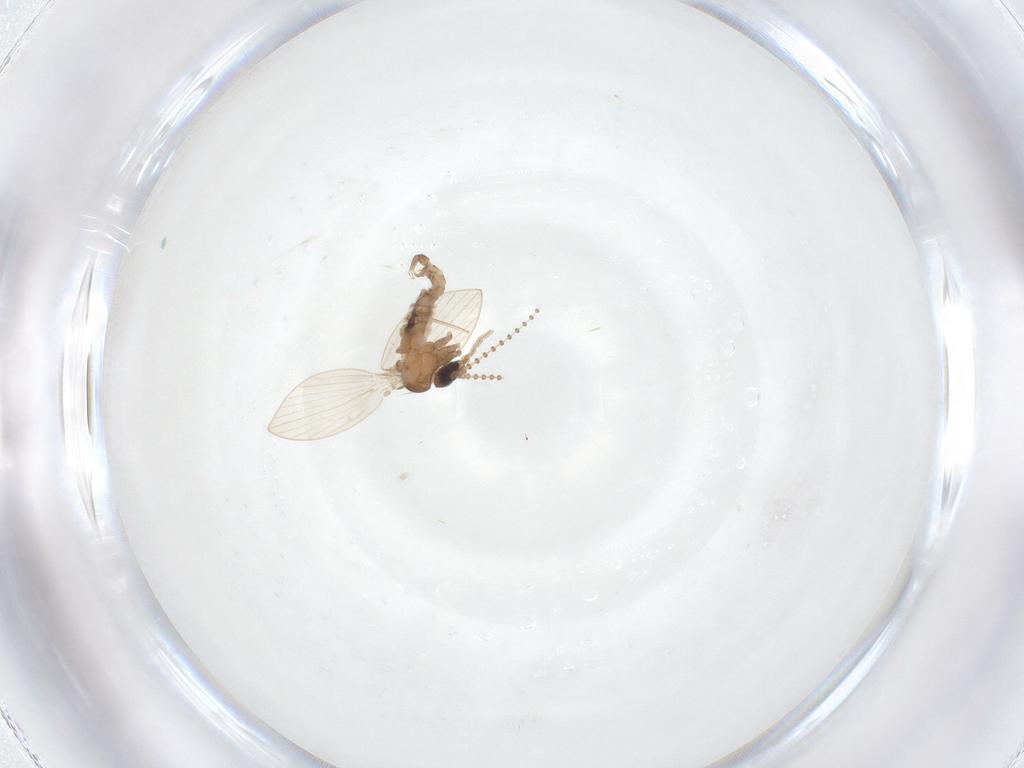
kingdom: Animalia
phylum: Arthropoda
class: Insecta
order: Diptera
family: Psychodidae
